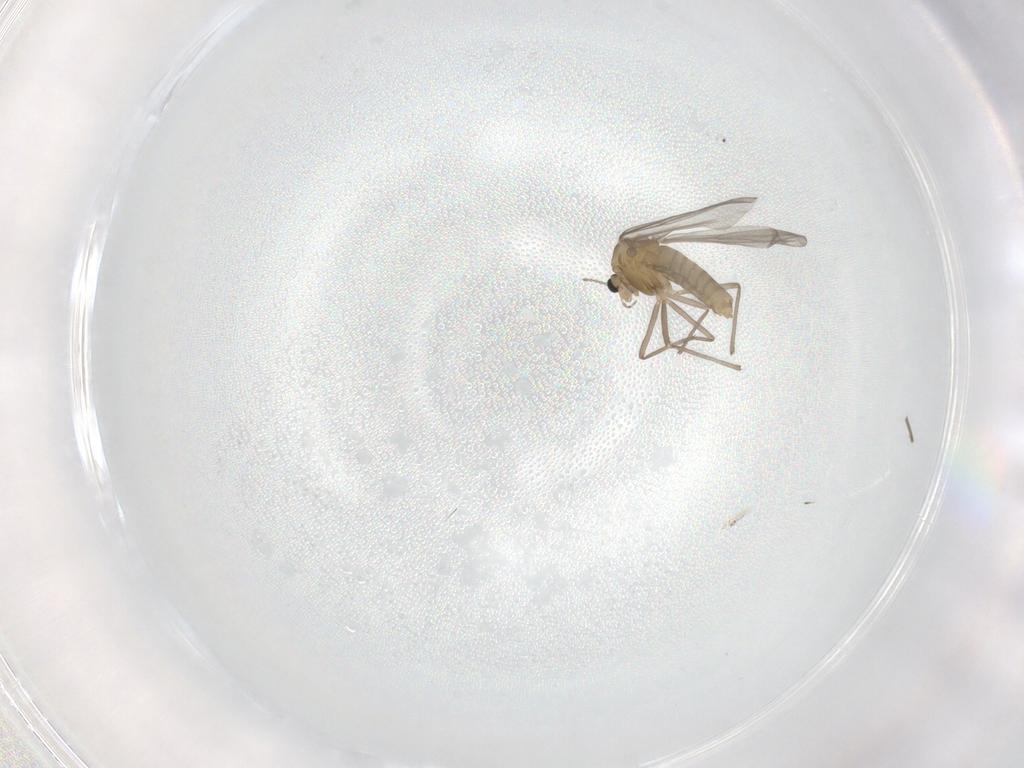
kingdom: Animalia
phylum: Arthropoda
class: Insecta
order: Diptera
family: Chironomidae
